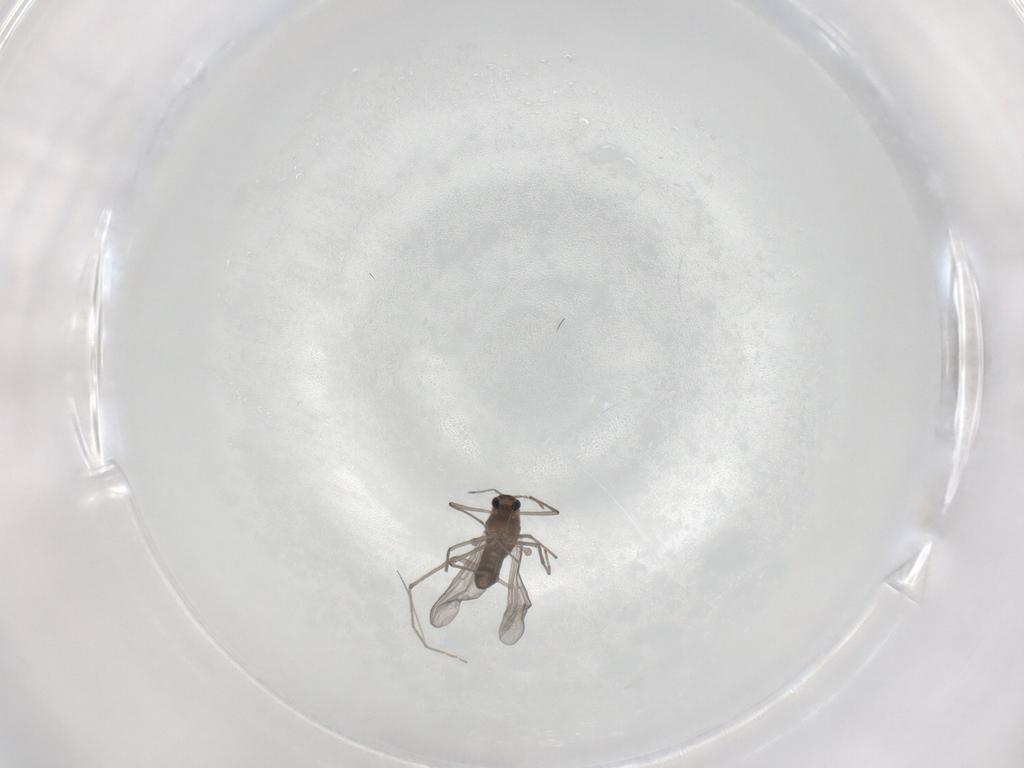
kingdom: Animalia
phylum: Arthropoda
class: Insecta
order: Diptera
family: Chironomidae
